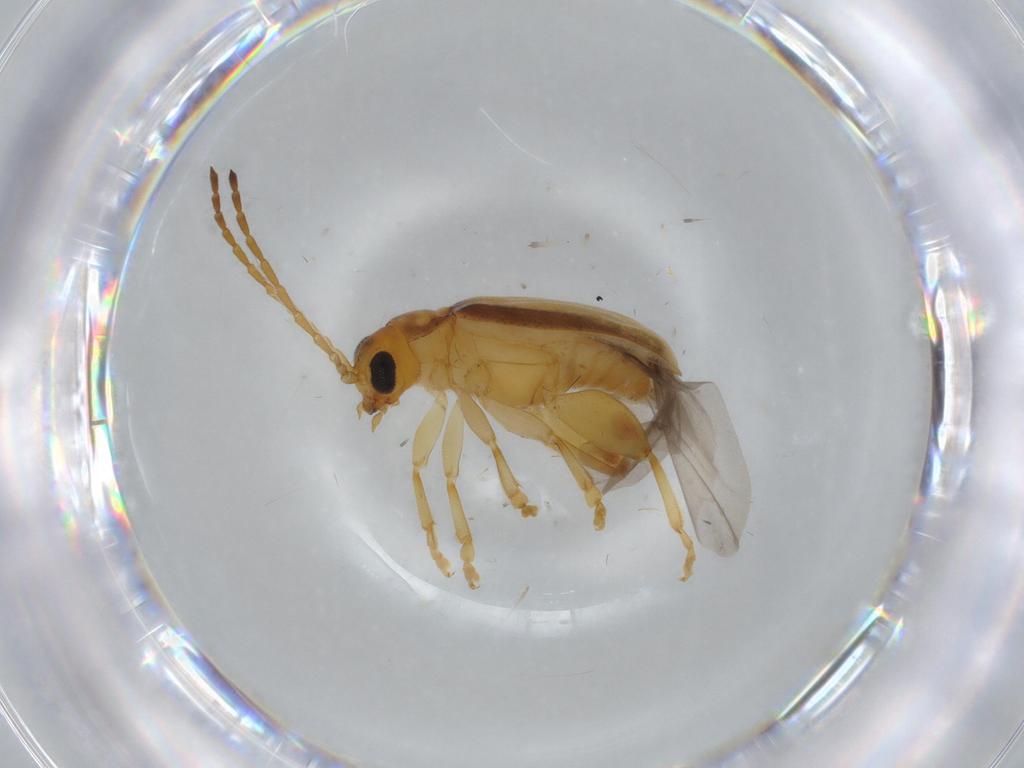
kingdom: Animalia
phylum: Arthropoda
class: Insecta
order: Coleoptera
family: Chrysomelidae
